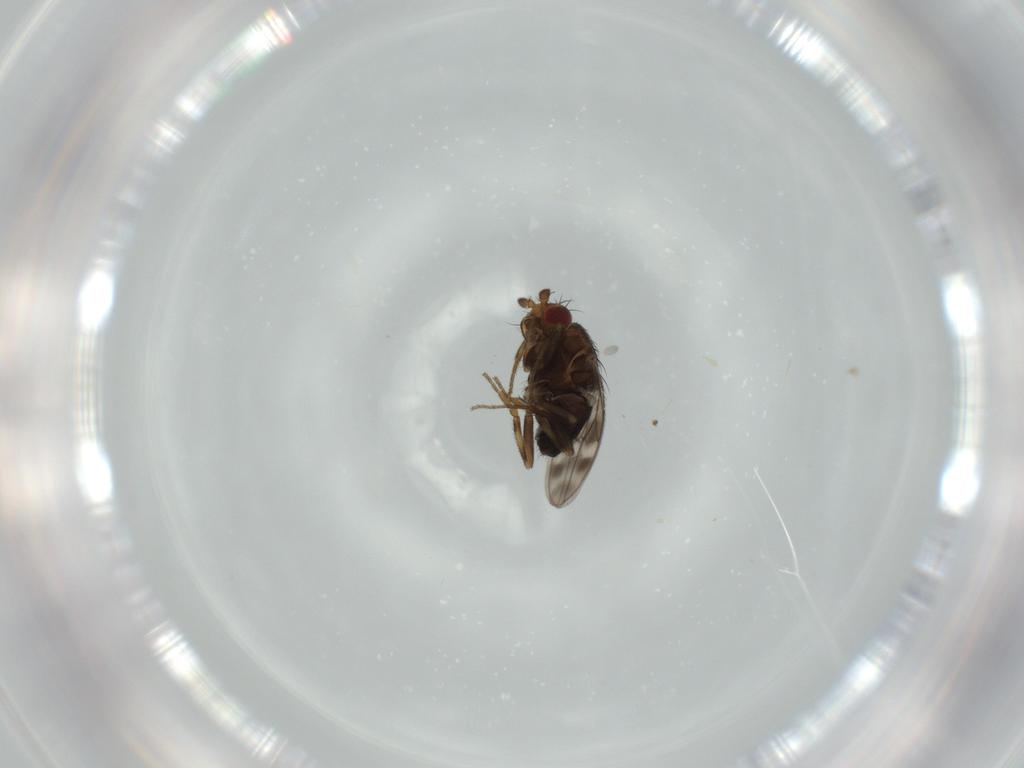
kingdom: Animalia
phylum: Arthropoda
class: Insecta
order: Diptera
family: Sphaeroceridae
